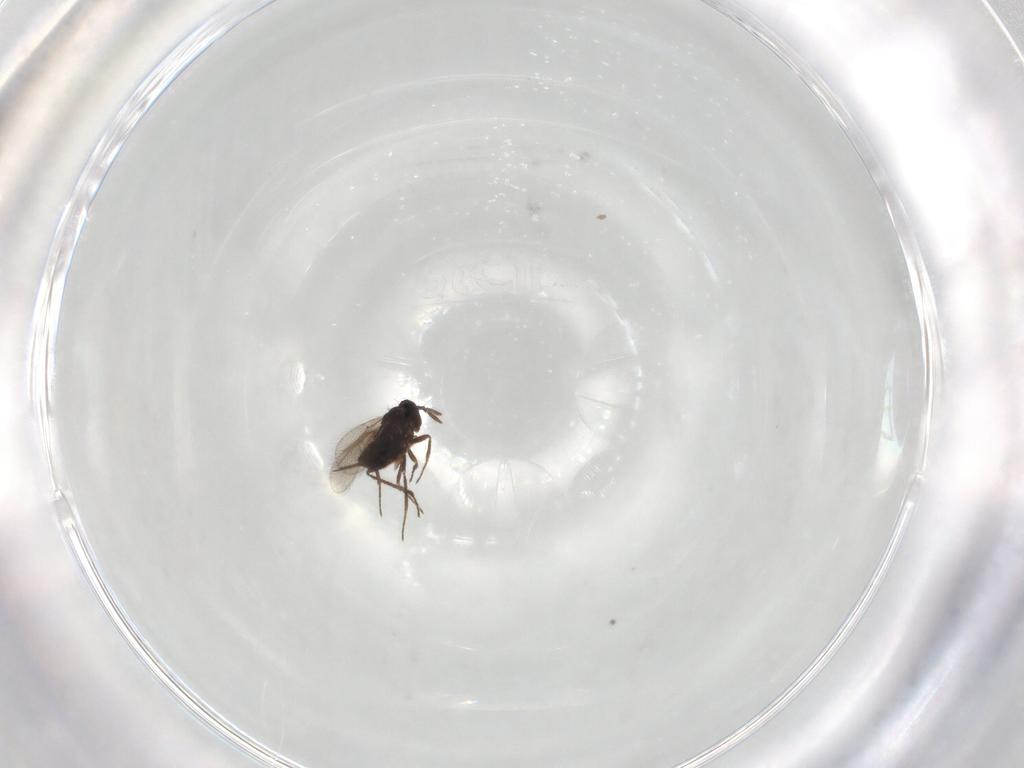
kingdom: Animalia
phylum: Arthropoda
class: Insecta
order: Hymenoptera
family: Trichogrammatidae
